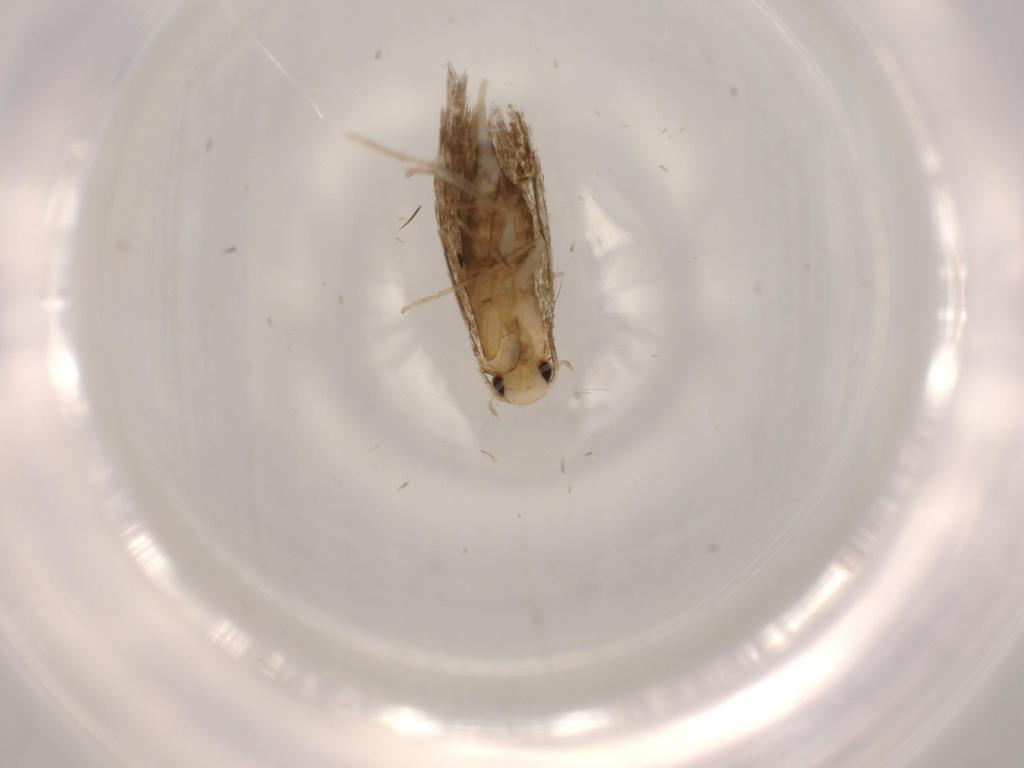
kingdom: Animalia
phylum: Arthropoda
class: Insecta
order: Lepidoptera
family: Tineidae
